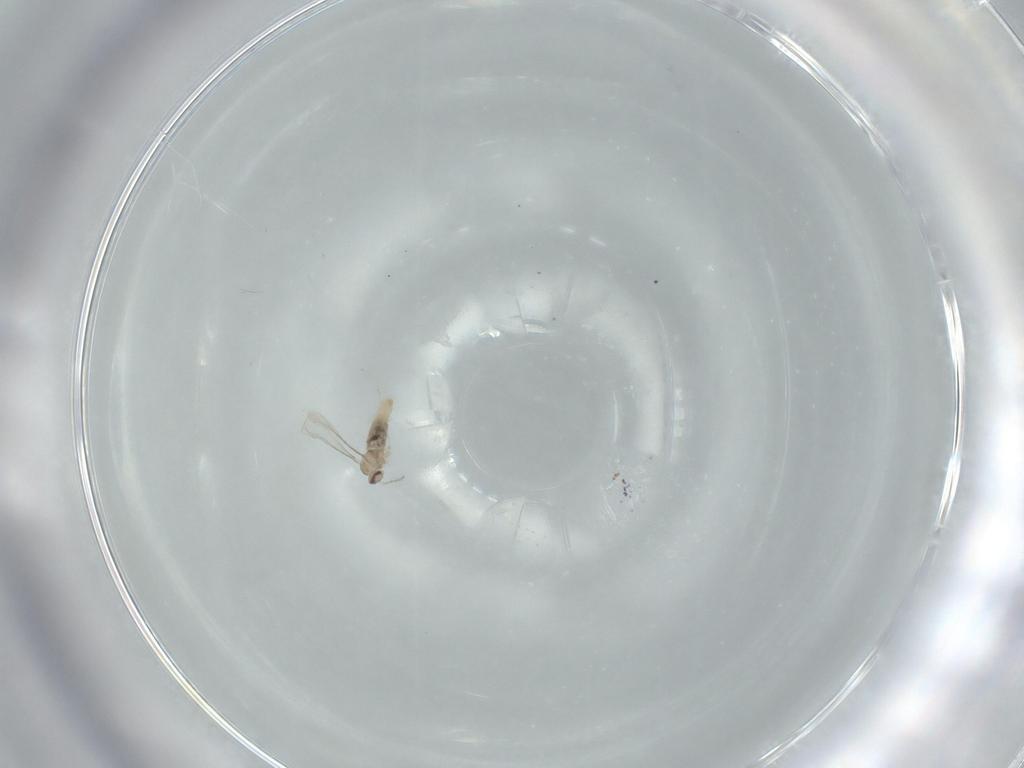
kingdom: Animalia
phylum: Arthropoda
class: Insecta
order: Diptera
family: Cecidomyiidae
